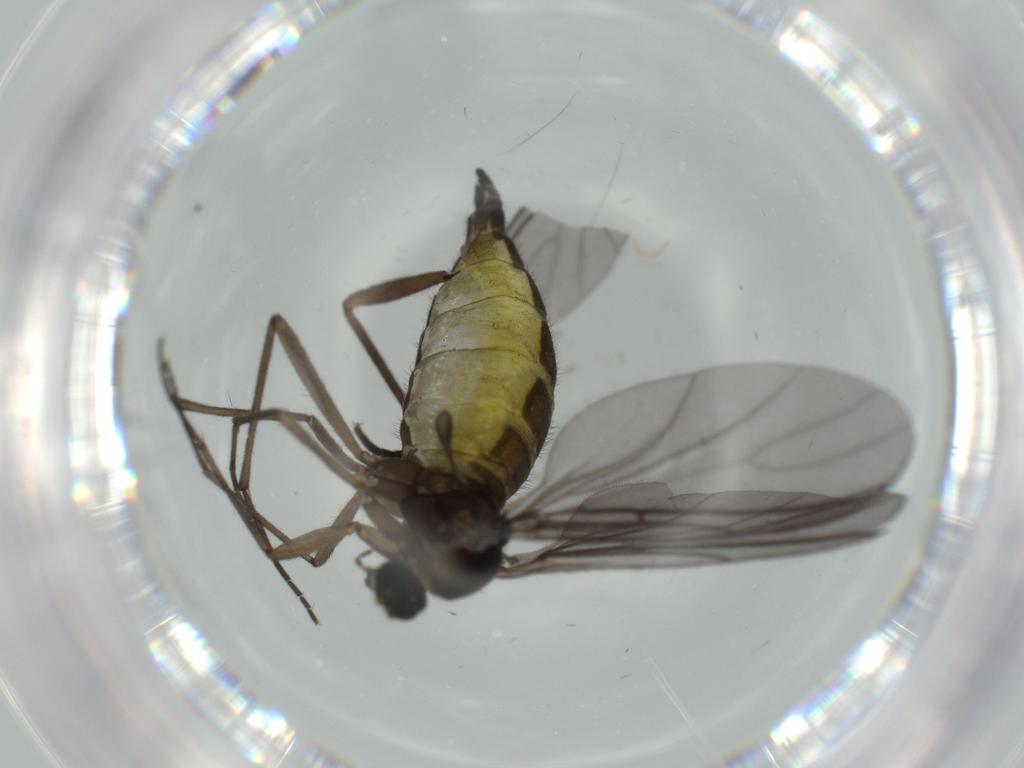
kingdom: Animalia
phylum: Arthropoda
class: Insecta
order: Diptera
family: Sciaridae
